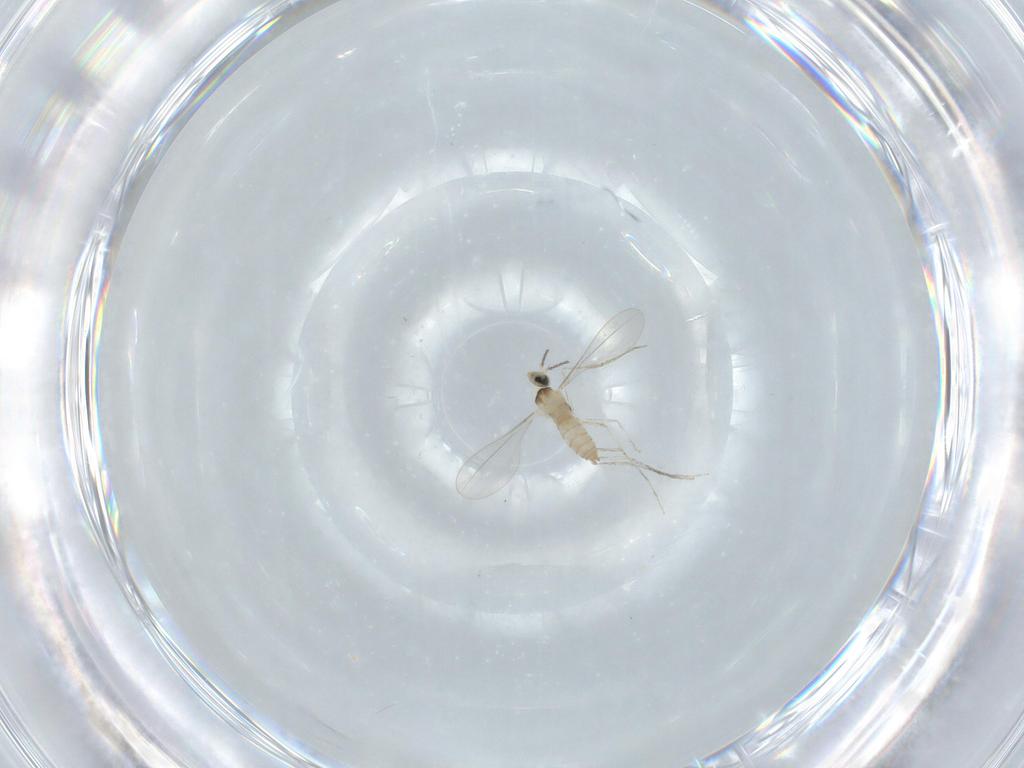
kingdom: Animalia
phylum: Arthropoda
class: Insecta
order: Diptera
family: Cecidomyiidae
